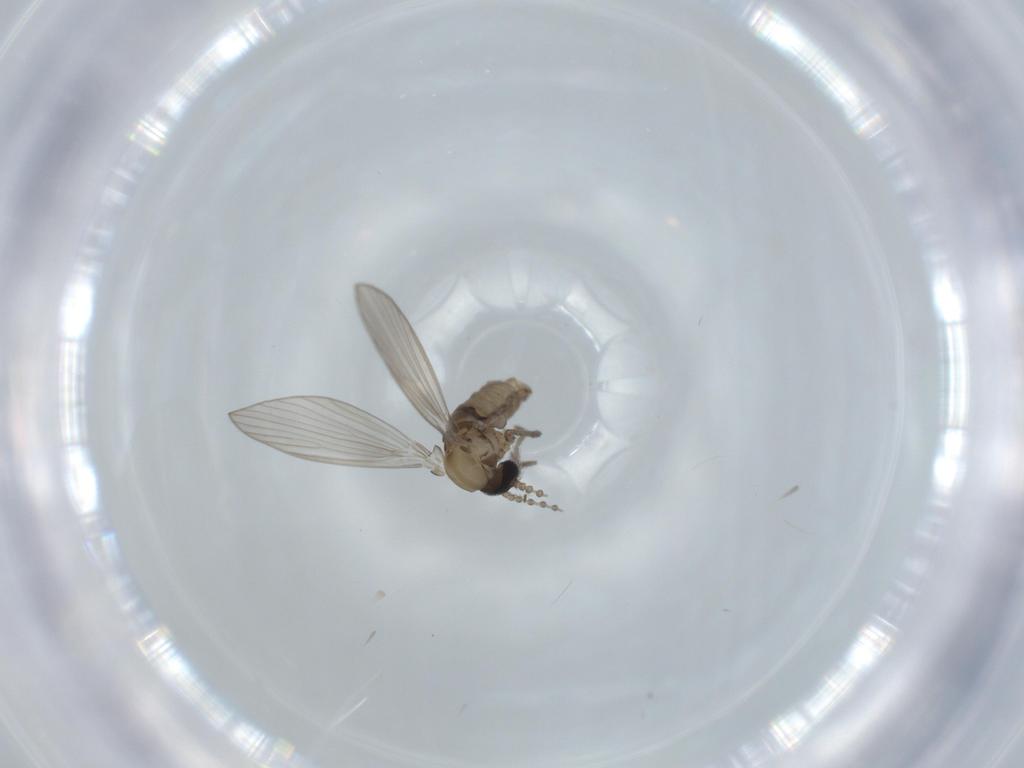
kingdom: Animalia
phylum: Arthropoda
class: Insecta
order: Diptera
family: Psychodidae
